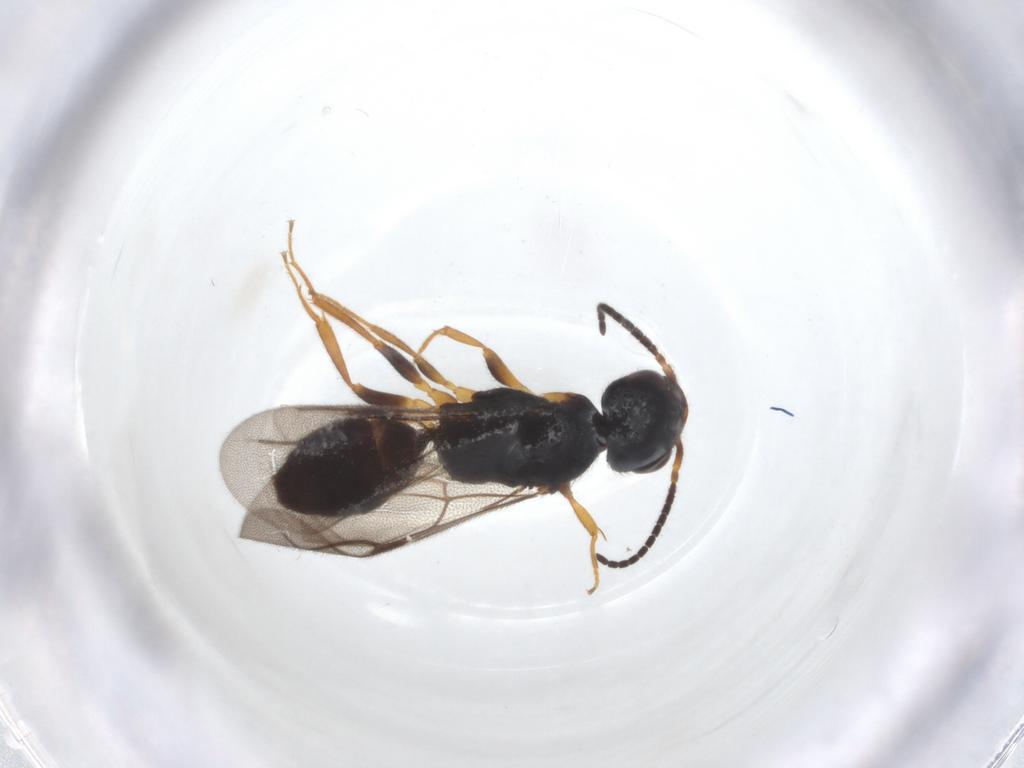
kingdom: Animalia
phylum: Arthropoda
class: Insecta
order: Hymenoptera
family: Bethylidae
